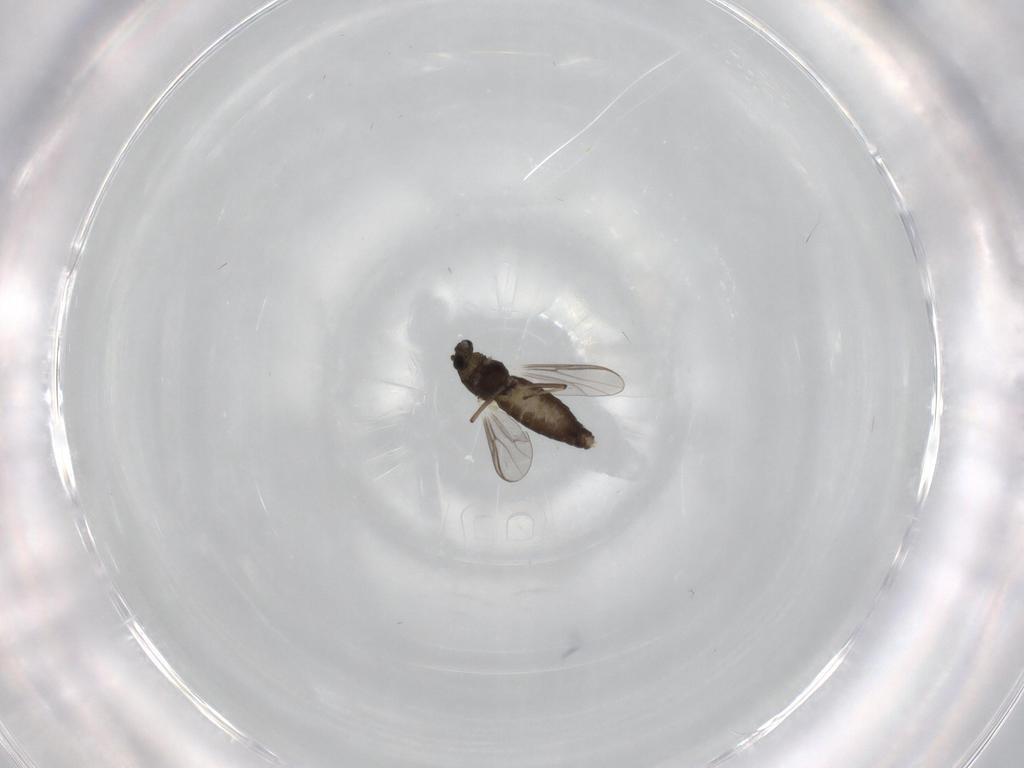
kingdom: Animalia
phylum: Arthropoda
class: Insecta
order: Diptera
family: Chironomidae
